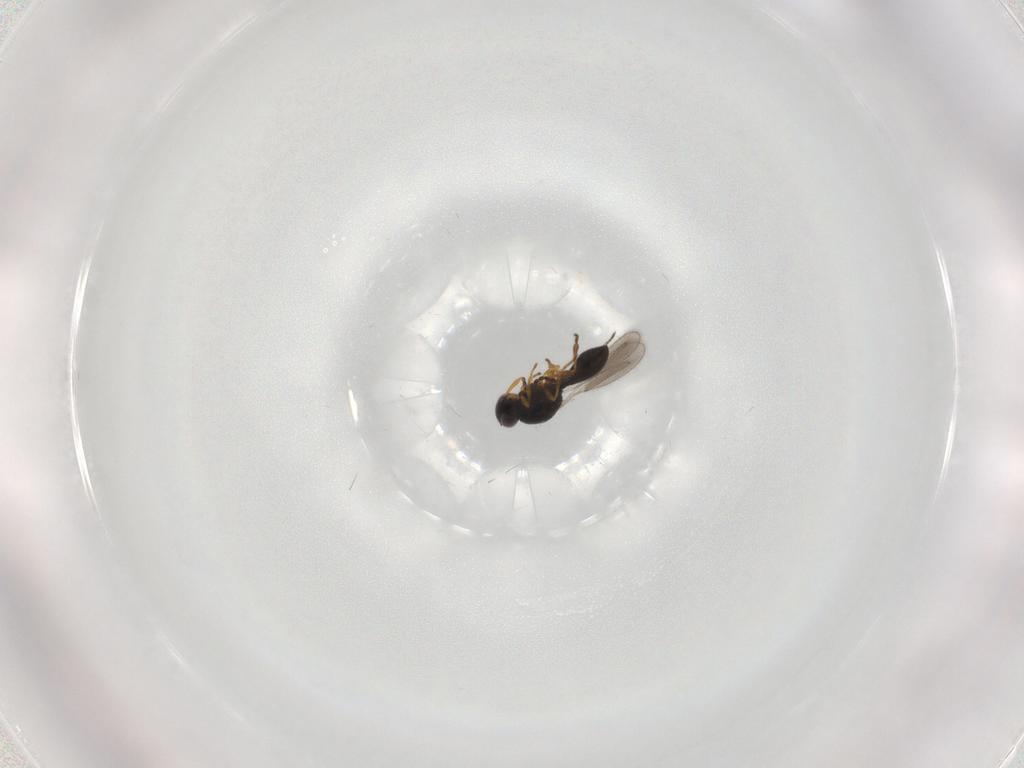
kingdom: Animalia
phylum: Arthropoda
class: Insecta
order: Hymenoptera
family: Platygastridae
